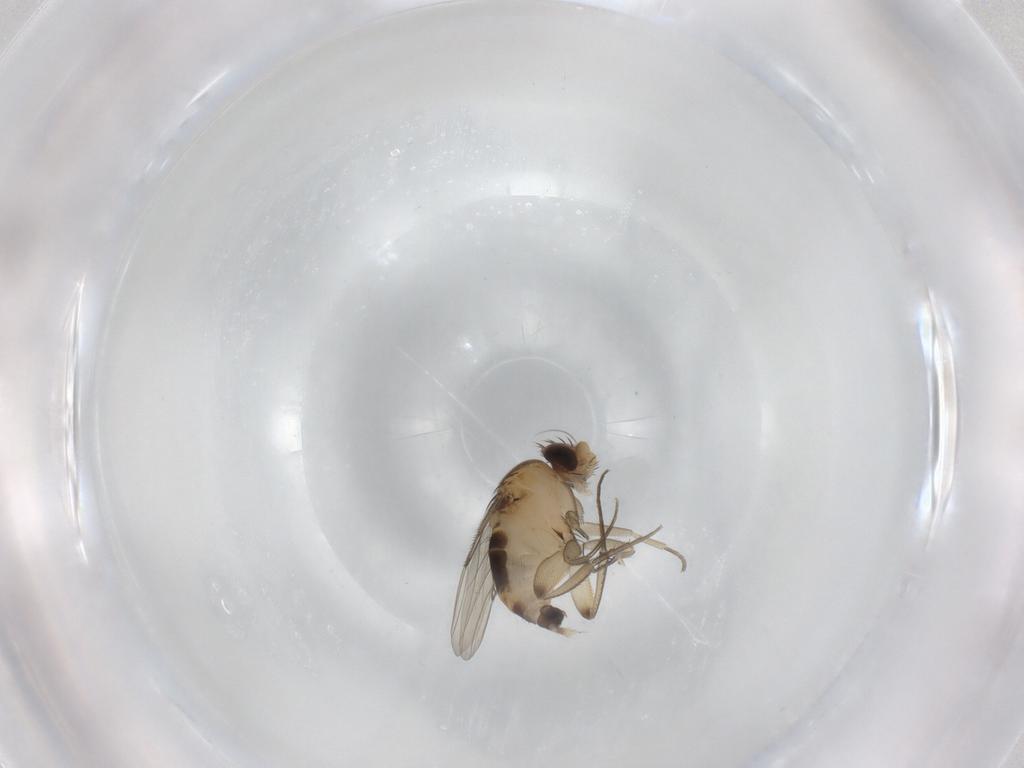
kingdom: Animalia
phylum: Arthropoda
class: Insecta
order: Diptera
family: Phoridae
